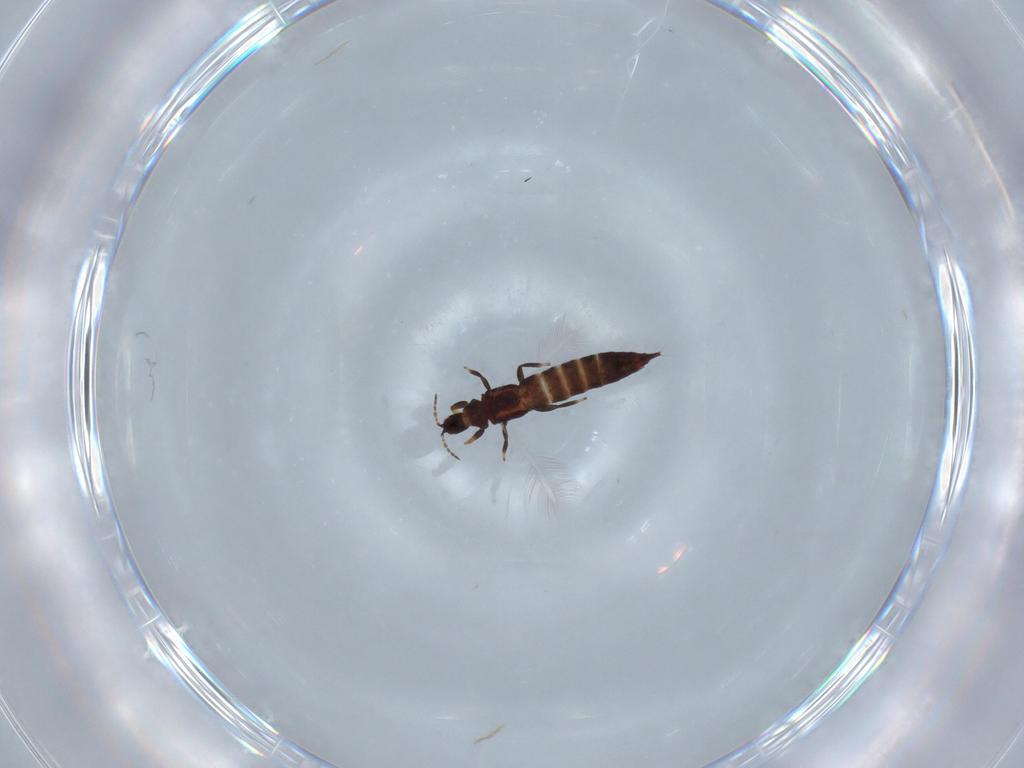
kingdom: Animalia
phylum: Arthropoda
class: Insecta
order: Thysanoptera
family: Phlaeothripidae
